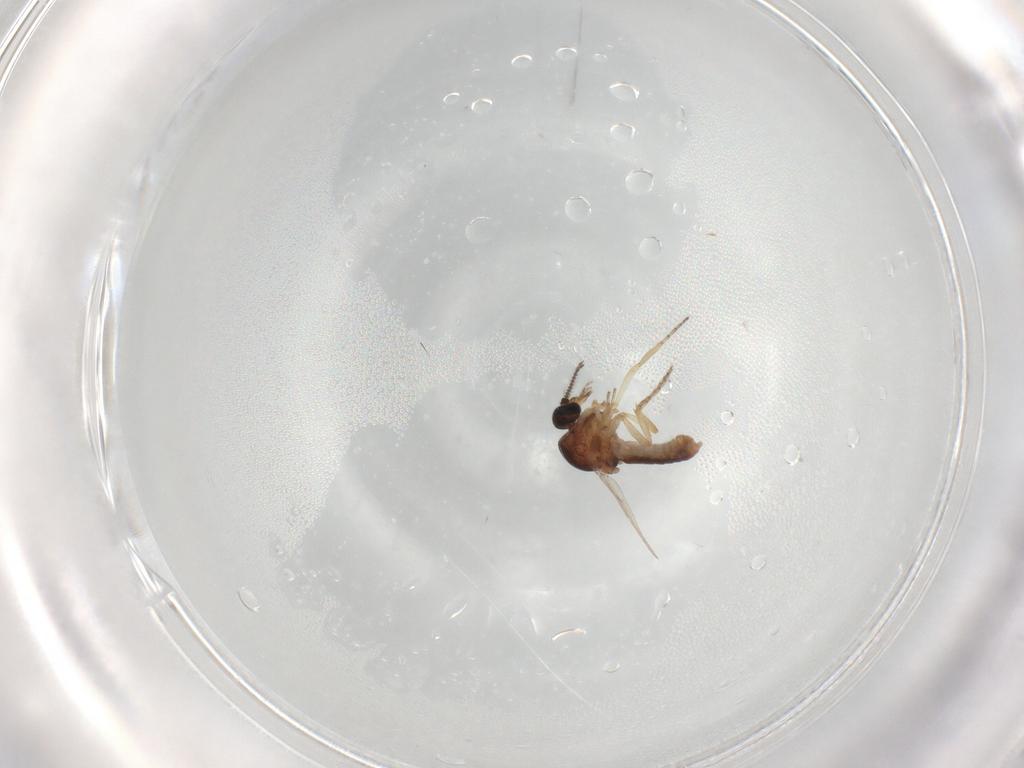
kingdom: Animalia
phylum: Arthropoda
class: Insecta
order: Diptera
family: Ceratopogonidae
